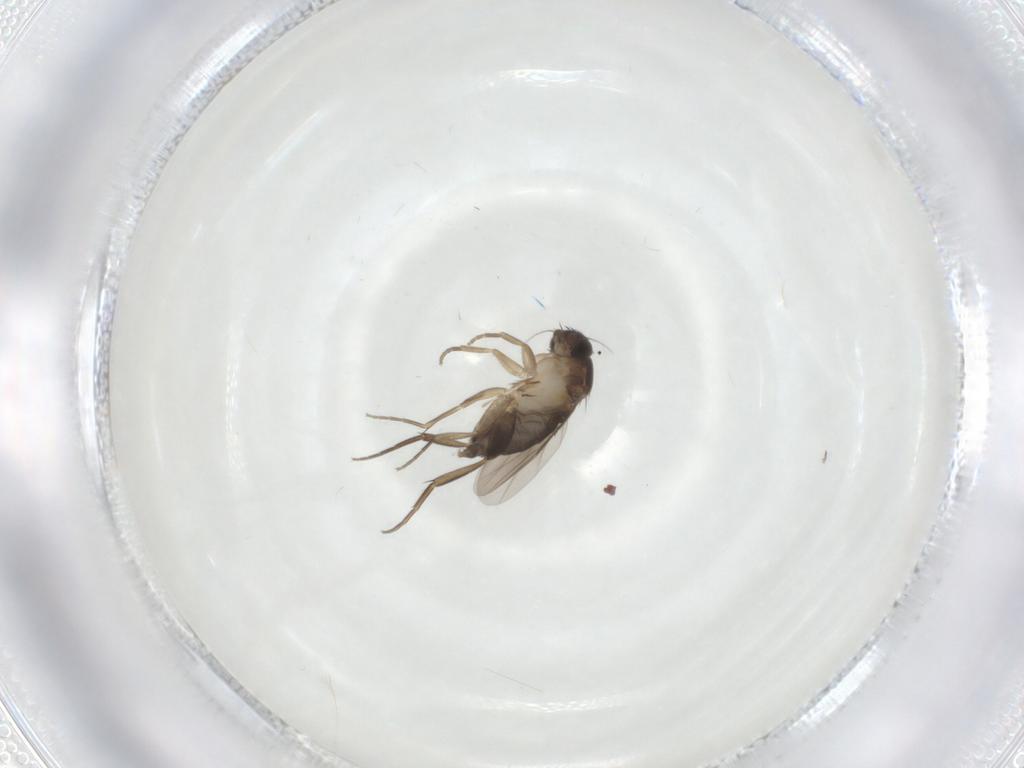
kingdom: Animalia
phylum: Arthropoda
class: Insecta
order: Diptera
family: Phoridae
